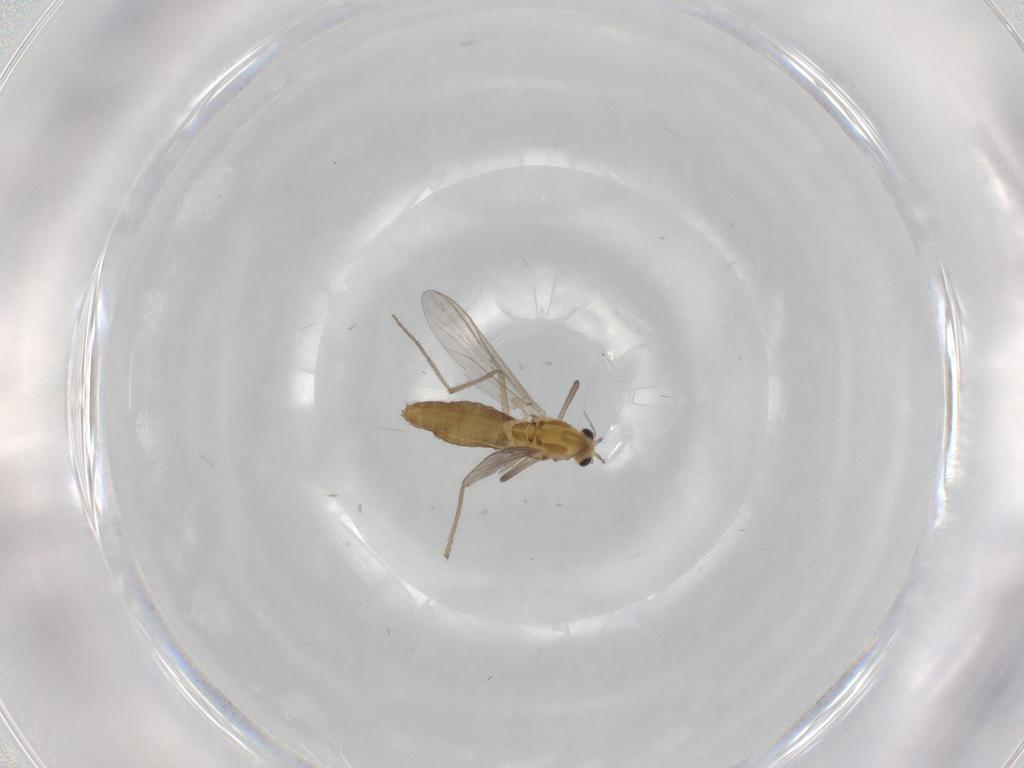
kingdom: Animalia
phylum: Arthropoda
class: Insecta
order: Diptera
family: Chironomidae
